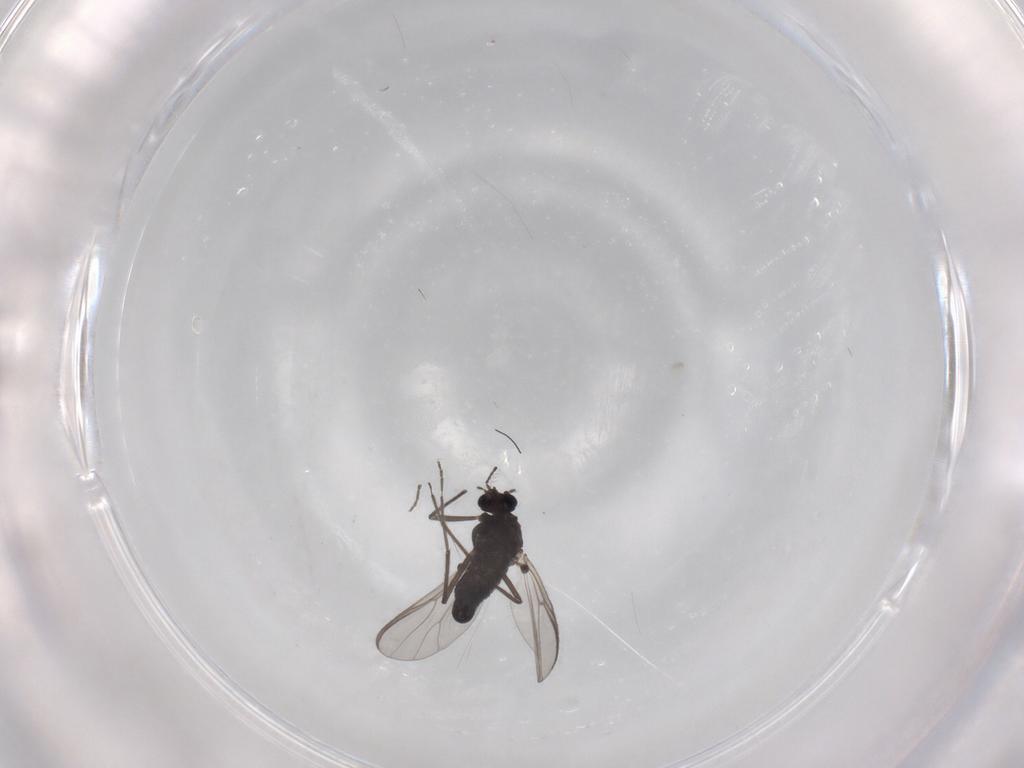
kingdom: Animalia
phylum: Arthropoda
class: Insecta
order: Diptera
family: Chironomidae
